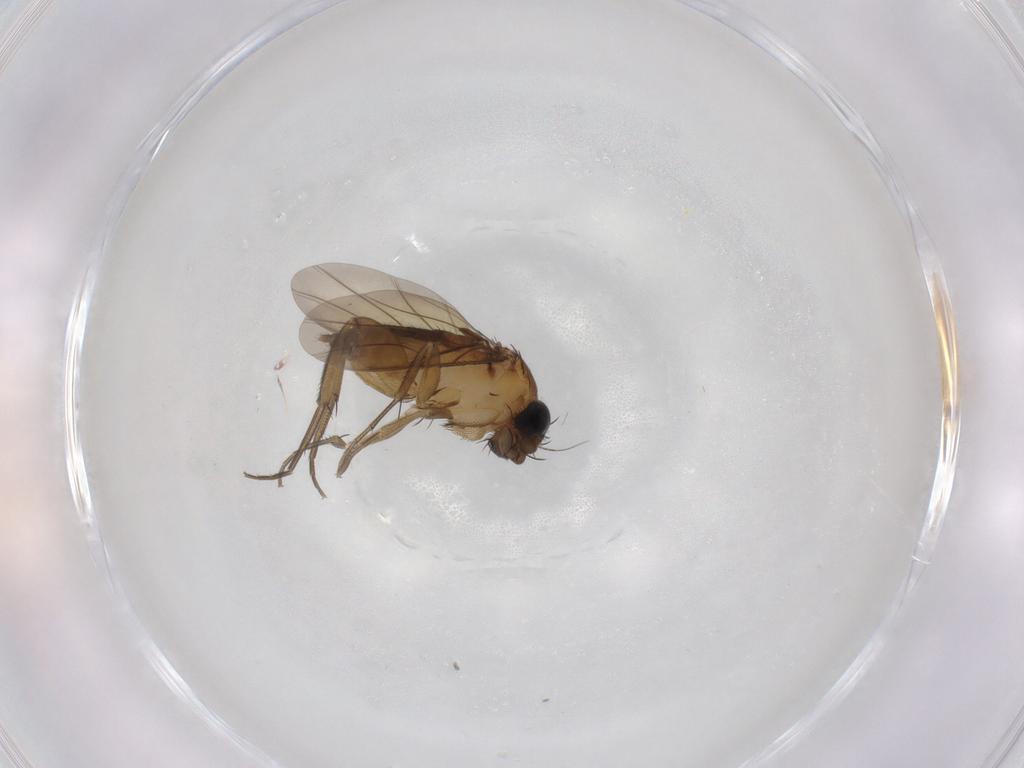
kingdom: Animalia
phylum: Arthropoda
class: Insecta
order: Diptera
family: Phoridae
